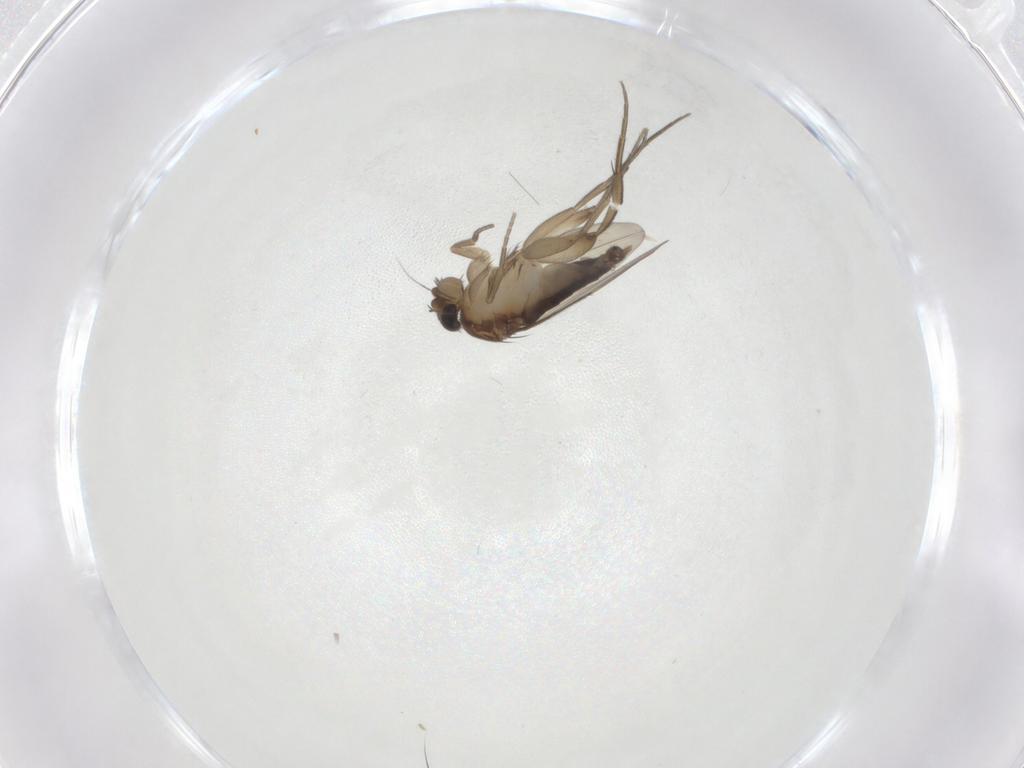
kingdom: Animalia
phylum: Arthropoda
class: Insecta
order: Diptera
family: Phoridae
